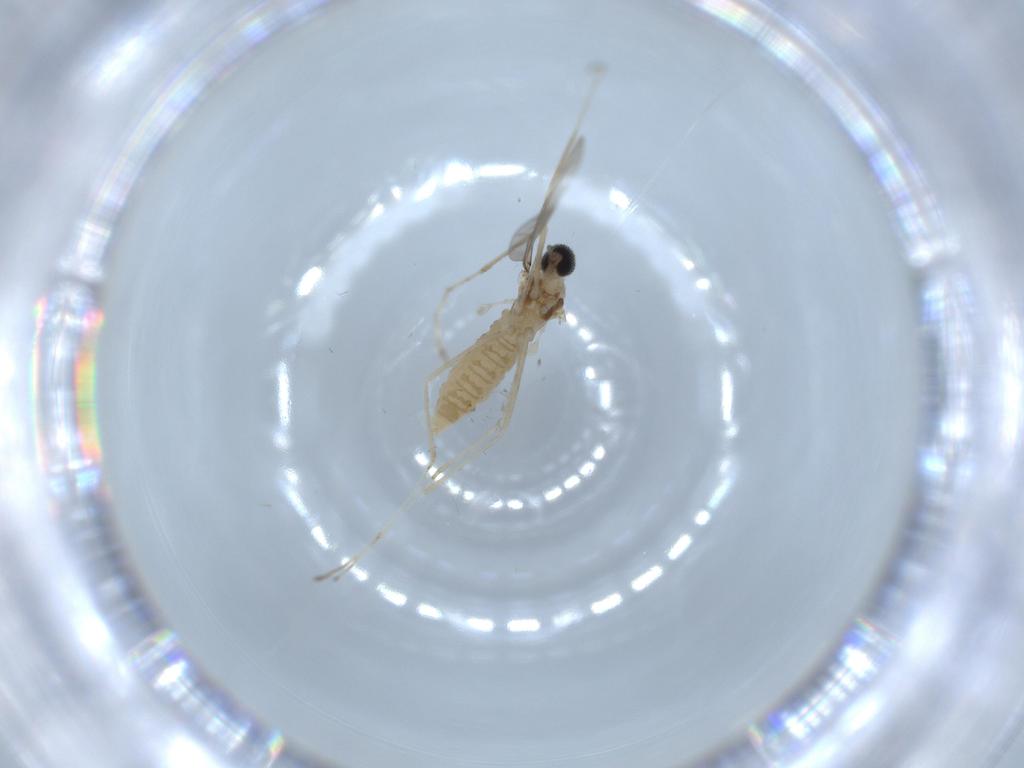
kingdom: Animalia
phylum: Arthropoda
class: Insecta
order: Diptera
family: Cecidomyiidae
